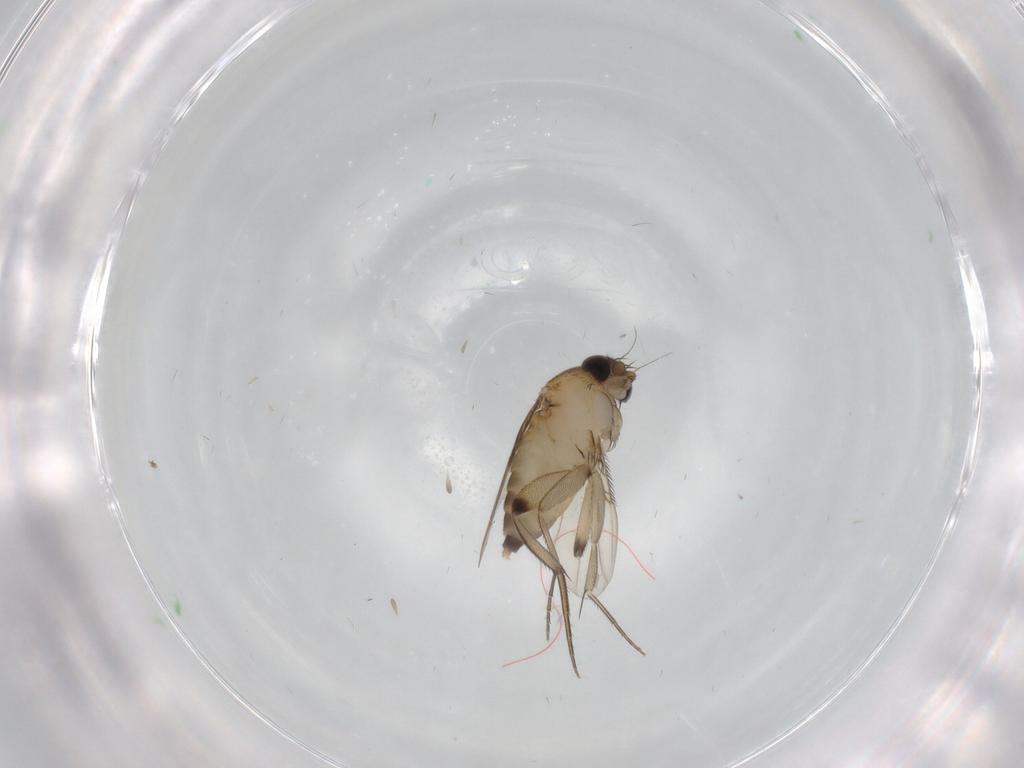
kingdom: Animalia
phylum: Arthropoda
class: Insecta
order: Diptera
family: Phoridae
